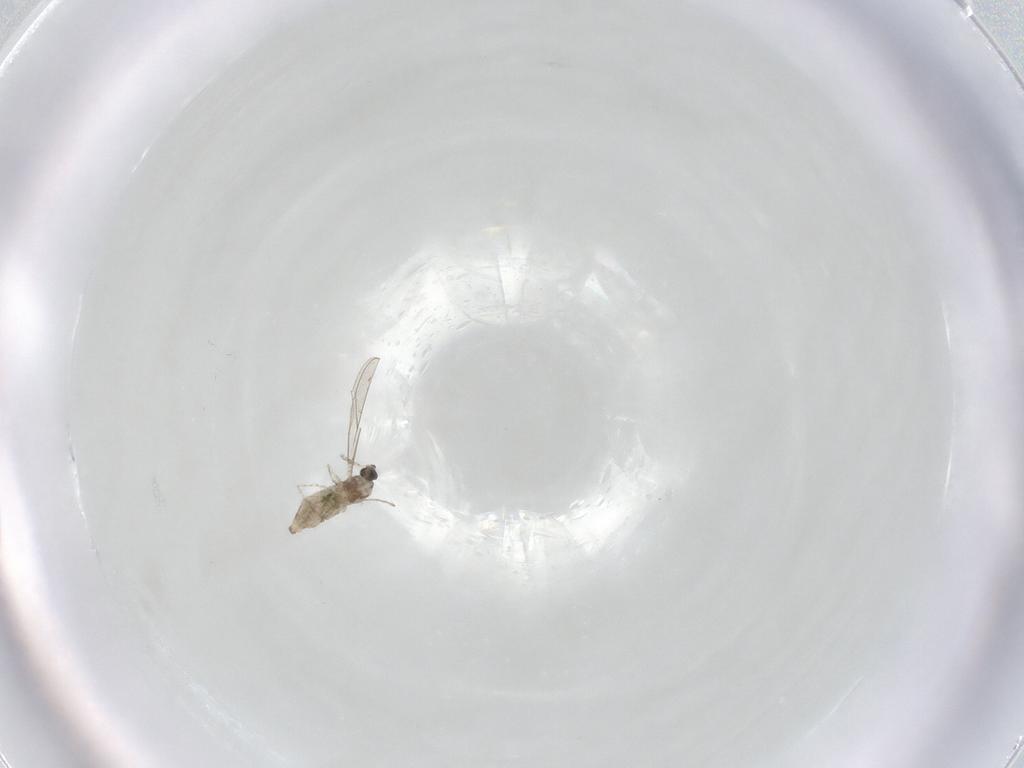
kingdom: Animalia
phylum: Arthropoda
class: Insecta
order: Diptera
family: Cecidomyiidae
